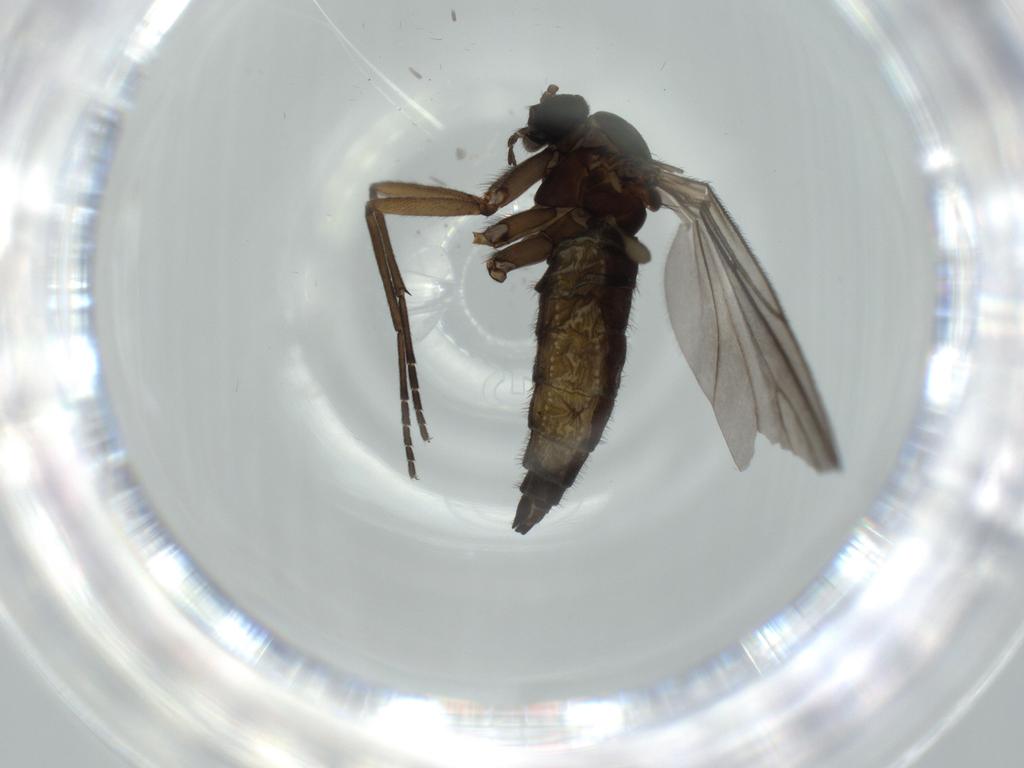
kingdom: Animalia
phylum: Arthropoda
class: Insecta
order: Diptera
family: Sciaridae
